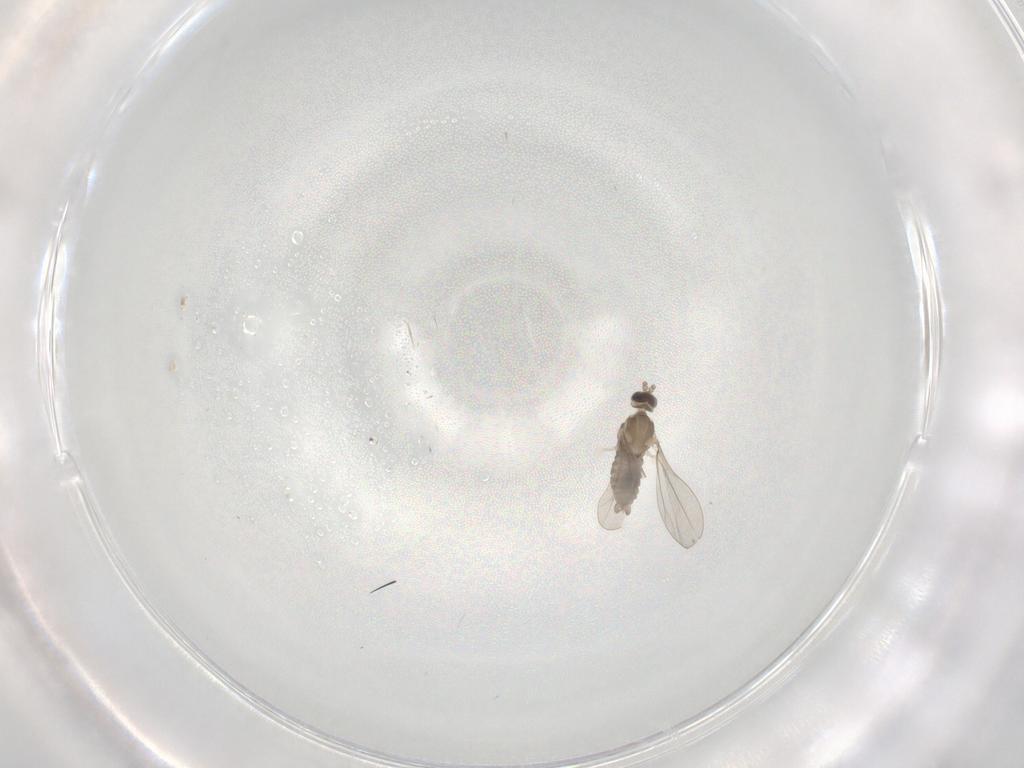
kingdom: Animalia
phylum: Arthropoda
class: Insecta
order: Diptera
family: Cecidomyiidae
